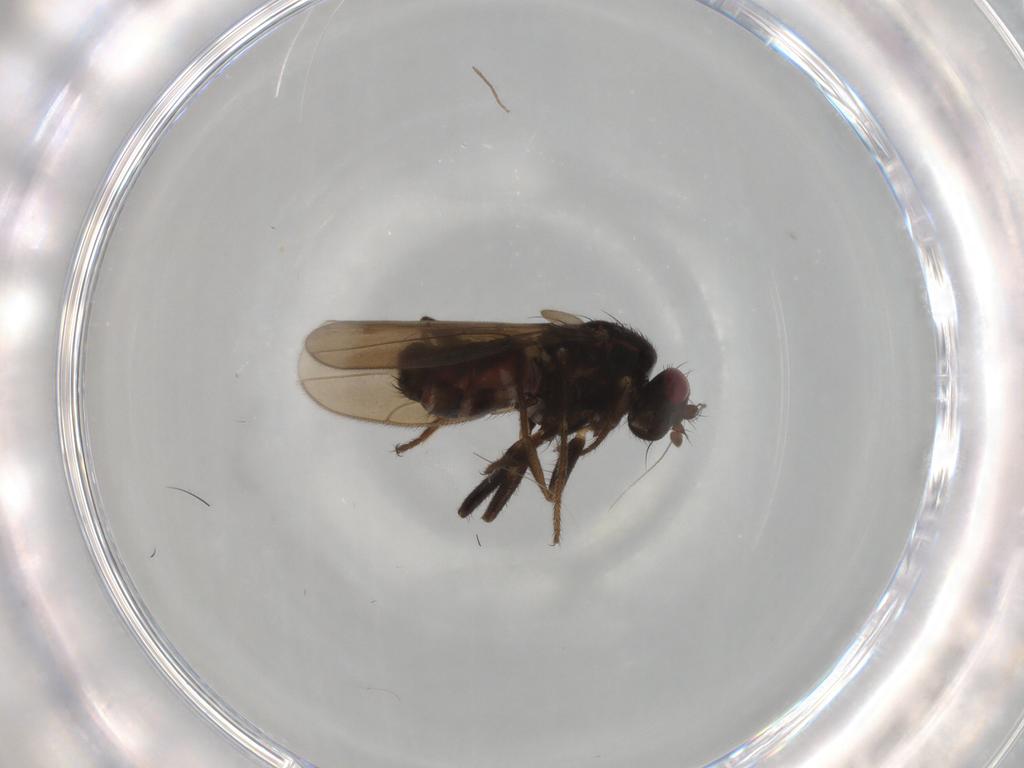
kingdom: Animalia
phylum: Arthropoda
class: Insecta
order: Diptera
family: Sphaeroceridae
